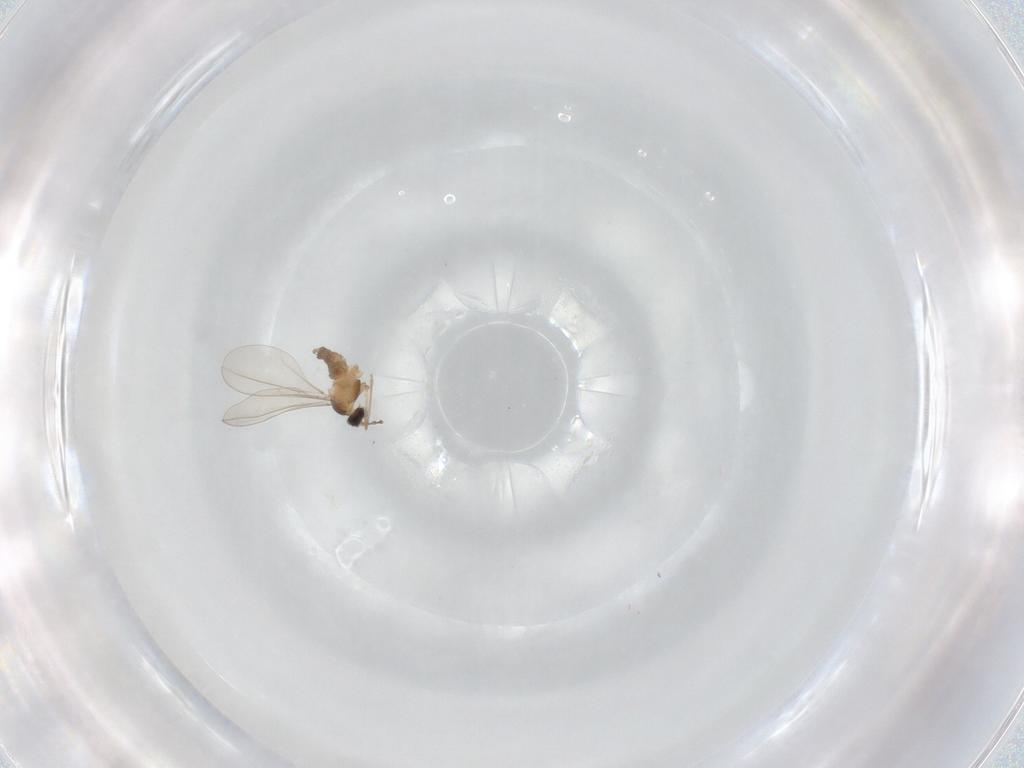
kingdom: Animalia
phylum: Arthropoda
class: Insecta
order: Diptera
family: Cecidomyiidae
